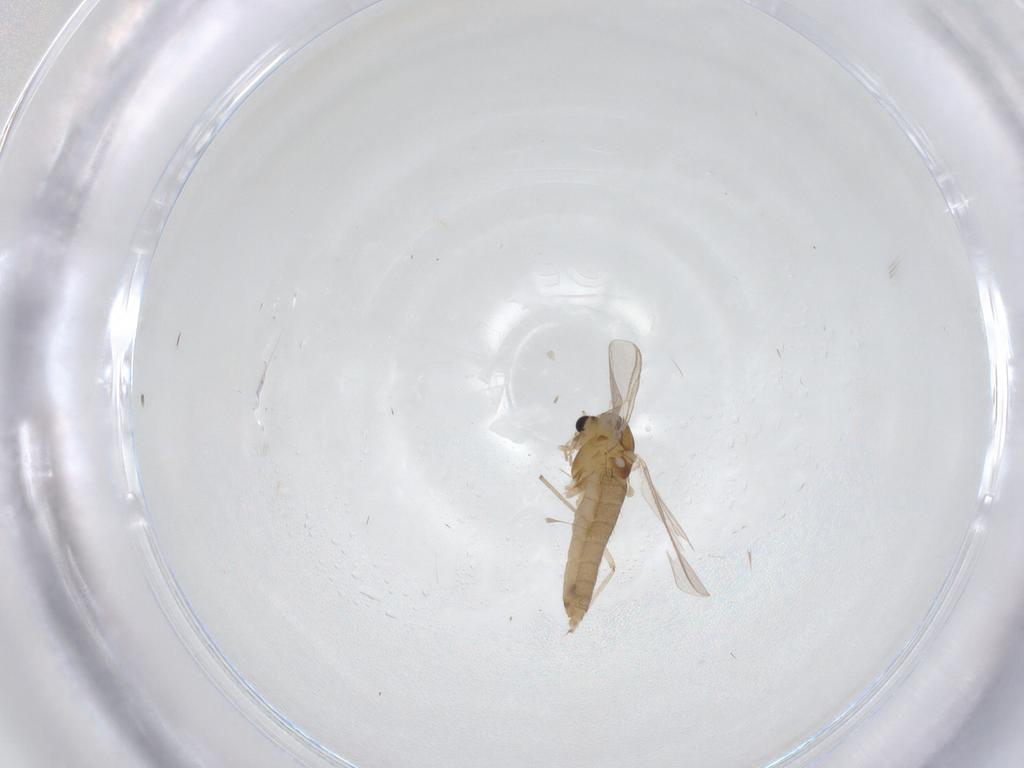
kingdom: Animalia
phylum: Arthropoda
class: Insecta
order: Diptera
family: Chironomidae
